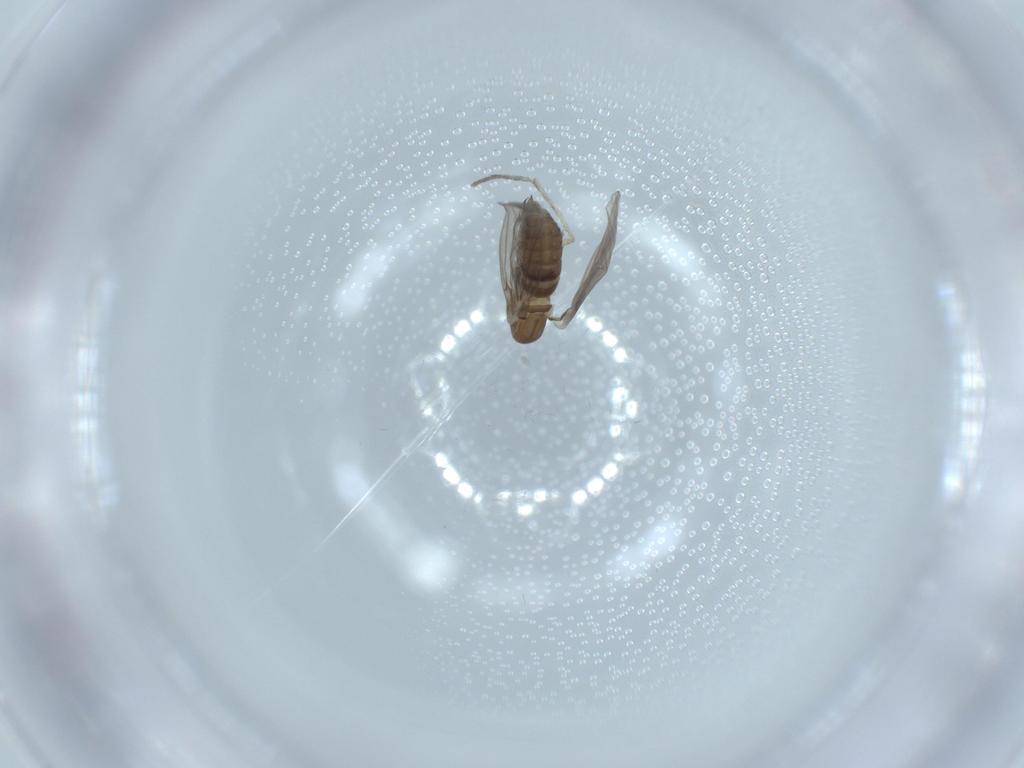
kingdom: Animalia
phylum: Arthropoda
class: Insecta
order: Diptera
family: Psychodidae
